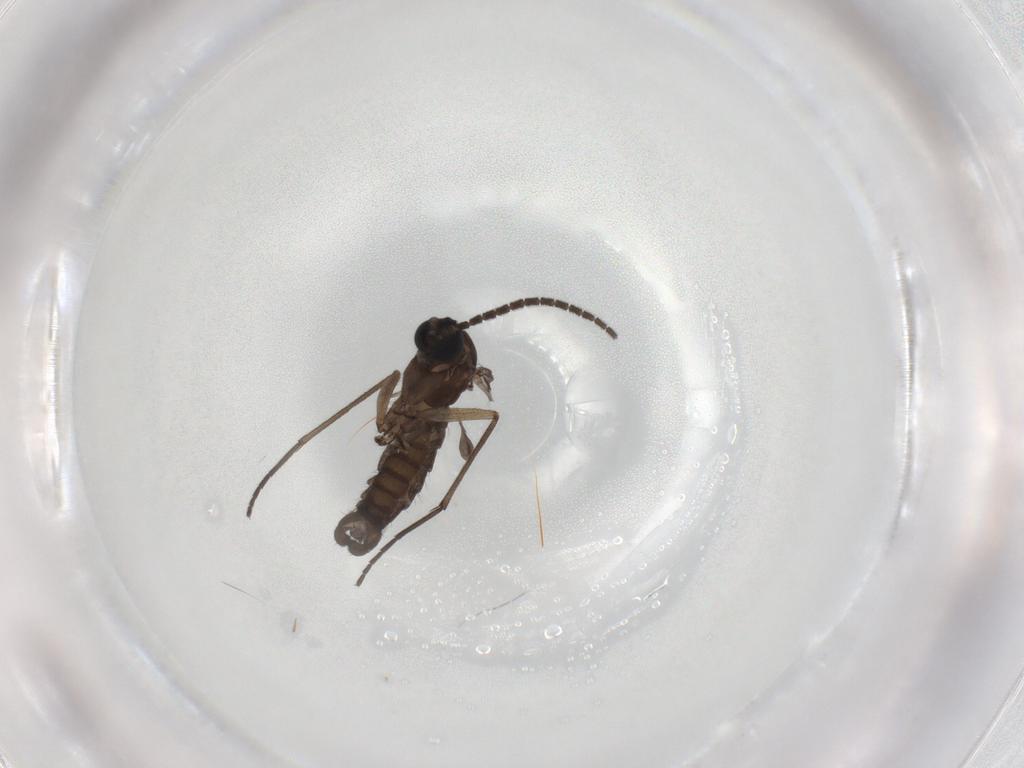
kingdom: Animalia
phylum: Arthropoda
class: Insecta
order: Diptera
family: Sciaridae
